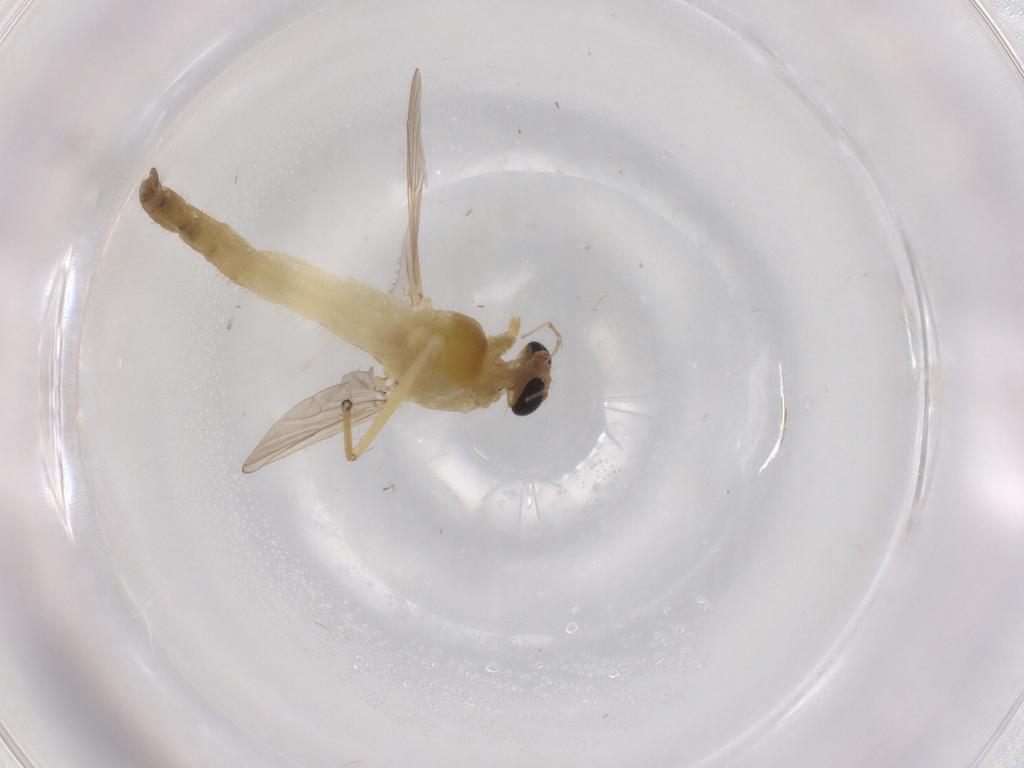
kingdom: Animalia
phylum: Arthropoda
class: Insecta
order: Diptera
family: Chironomidae
